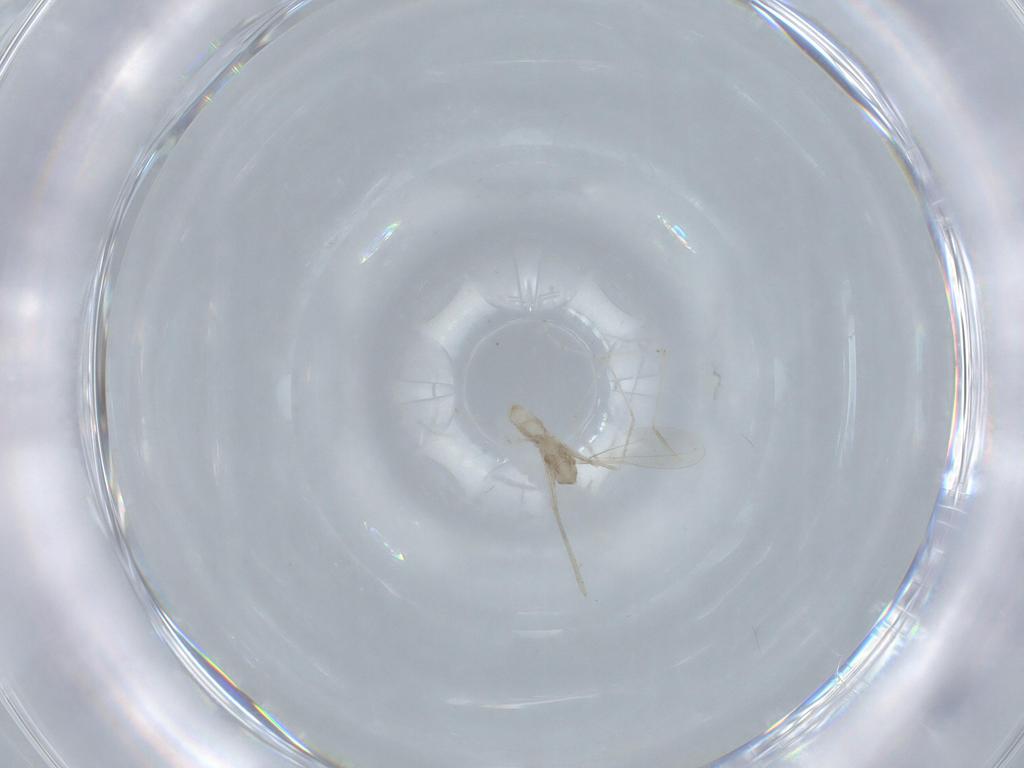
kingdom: Animalia
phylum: Arthropoda
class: Insecta
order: Diptera
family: Cecidomyiidae
